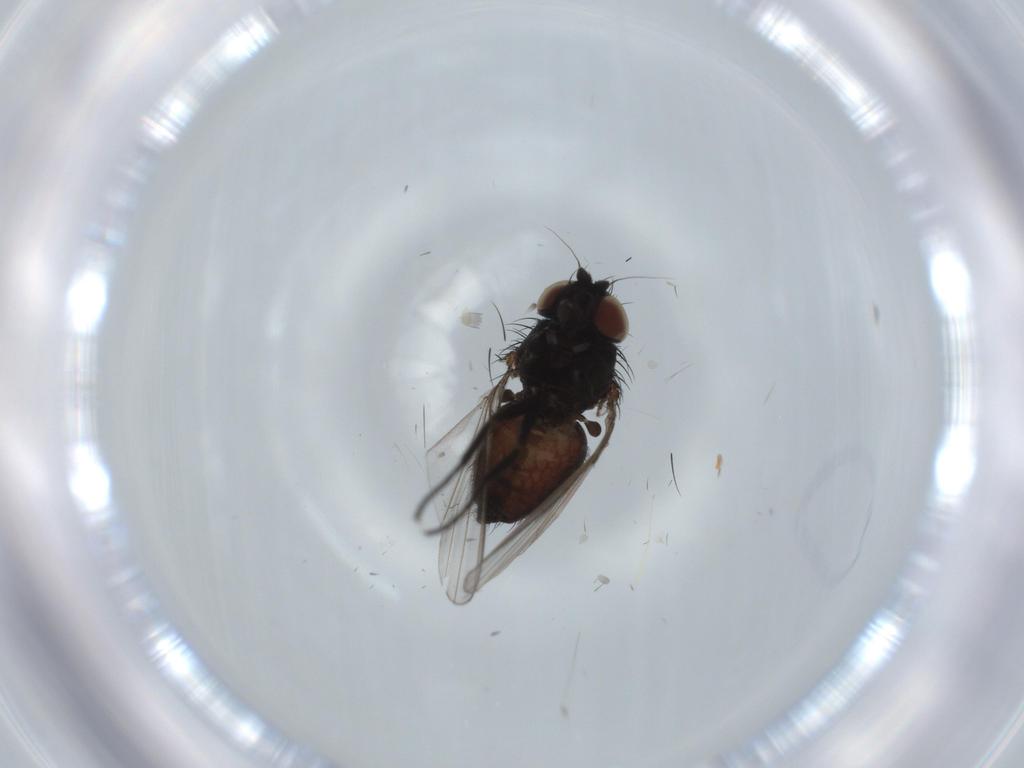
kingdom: Animalia
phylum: Arthropoda
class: Insecta
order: Diptera
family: Milichiidae
